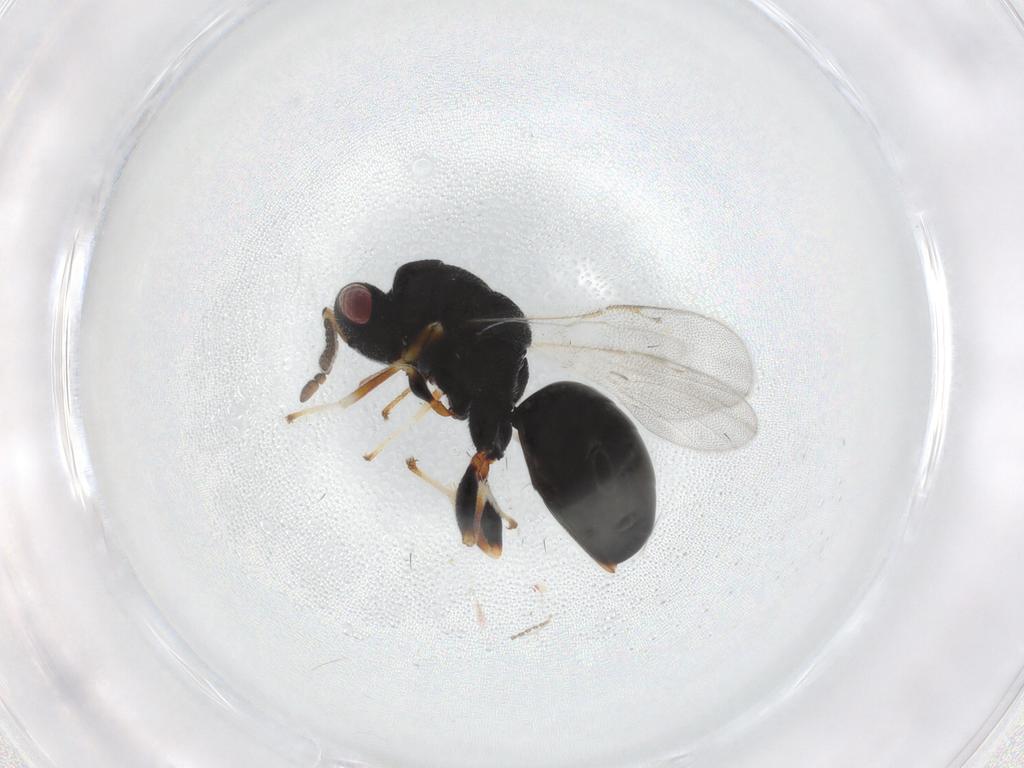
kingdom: Animalia
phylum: Arthropoda
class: Insecta
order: Hymenoptera
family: Eurytomidae
